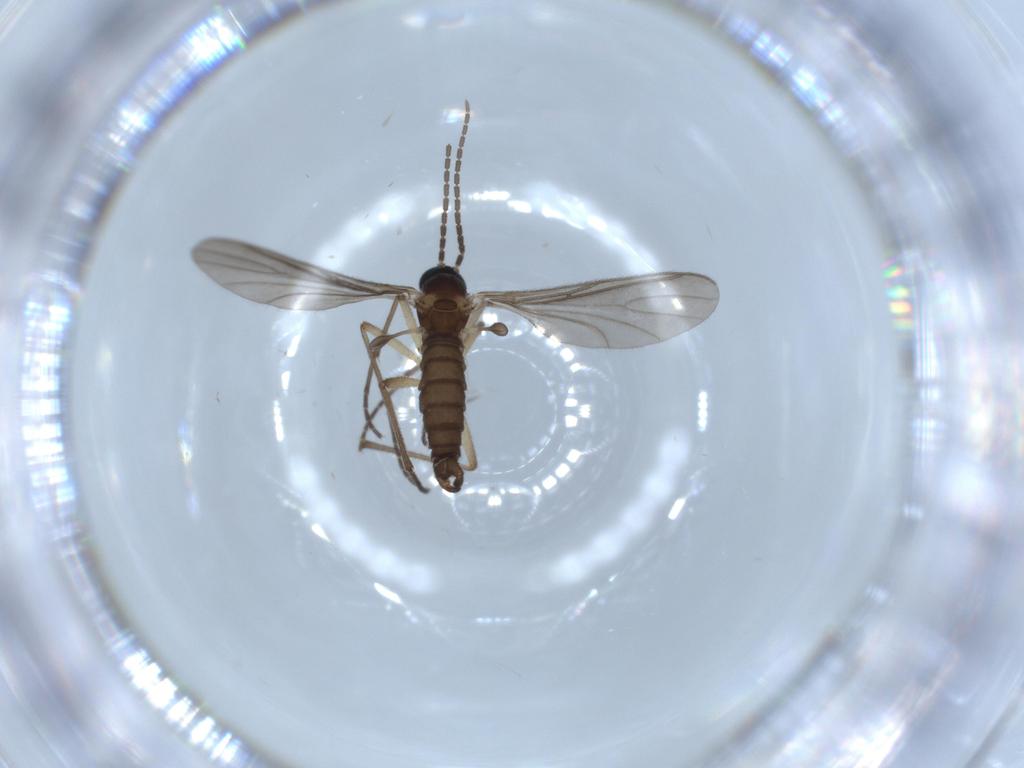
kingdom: Animalia
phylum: Arthropoda
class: Insecta
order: Diptera
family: Sciaridae
